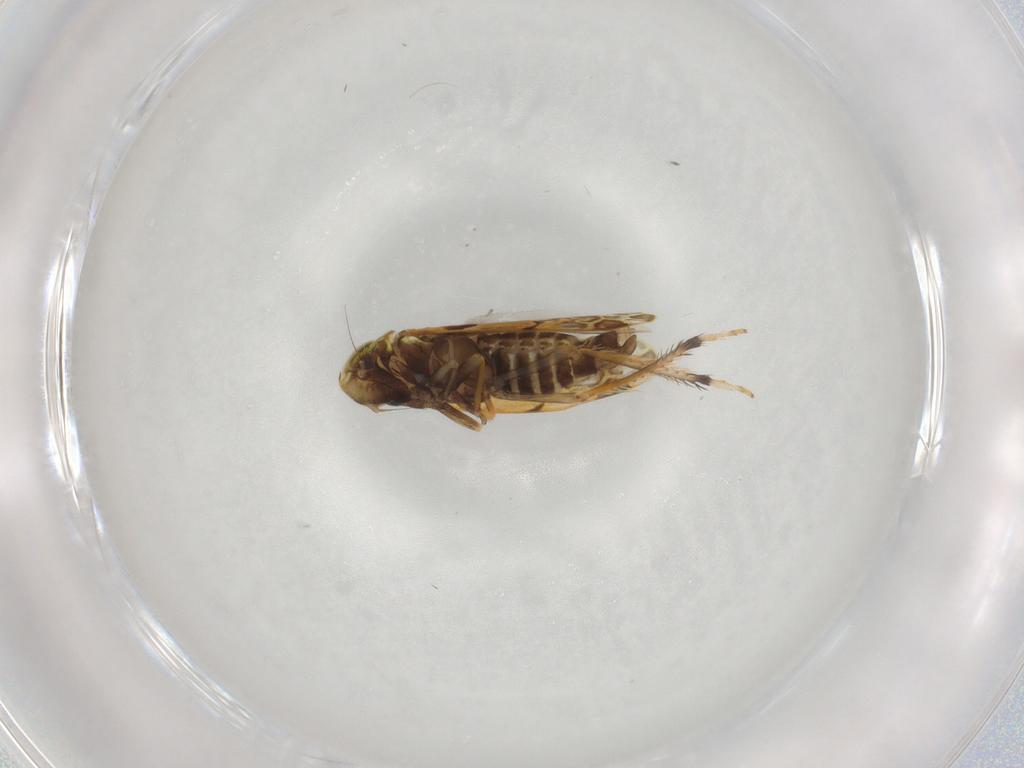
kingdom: Animalia
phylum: Arthropoda
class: Insecta
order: Hemiptera
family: Cicadellidae
